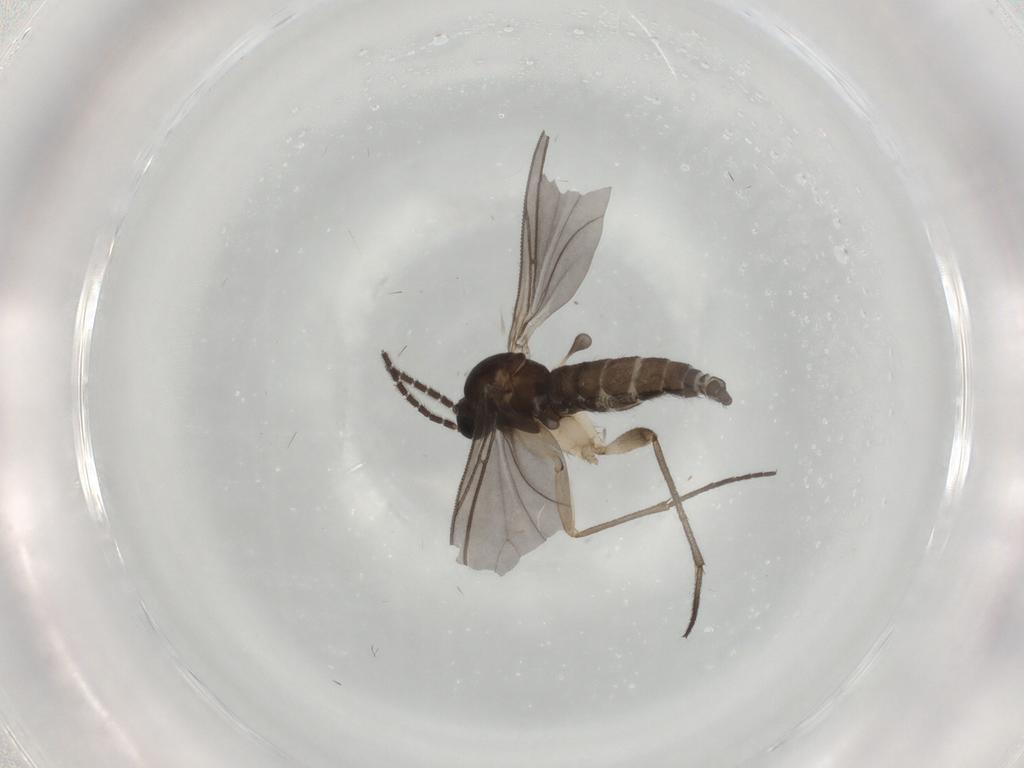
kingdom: Animalia
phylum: Arthropoda
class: Insecta
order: Diptera
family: Sciaridae
